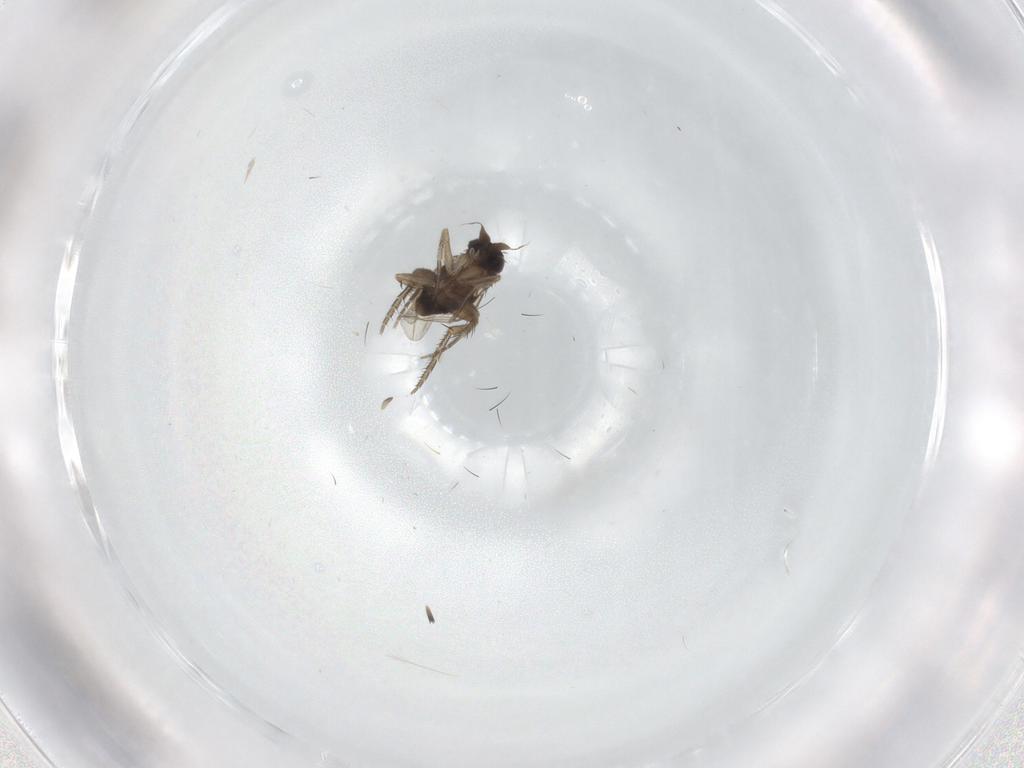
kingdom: Animalia
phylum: Arthropoda
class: Insecta
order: Diptera
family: Phoridae
